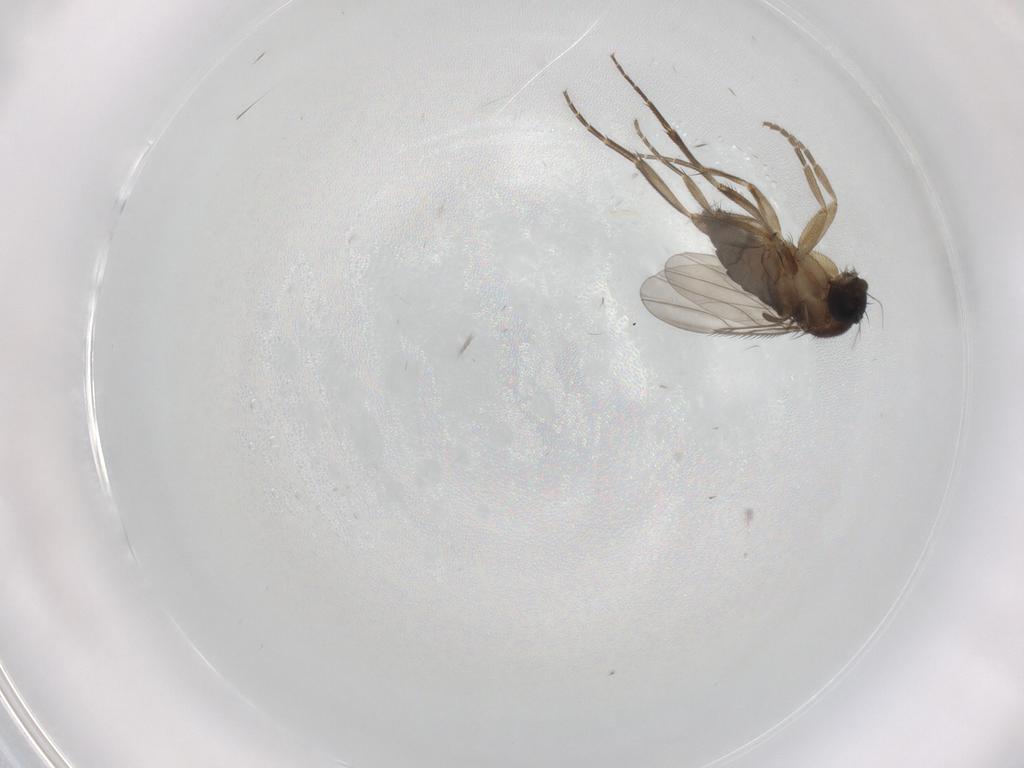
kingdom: Animalia
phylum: Arthropoda
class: Insecta
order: Diptera
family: Phoridae
